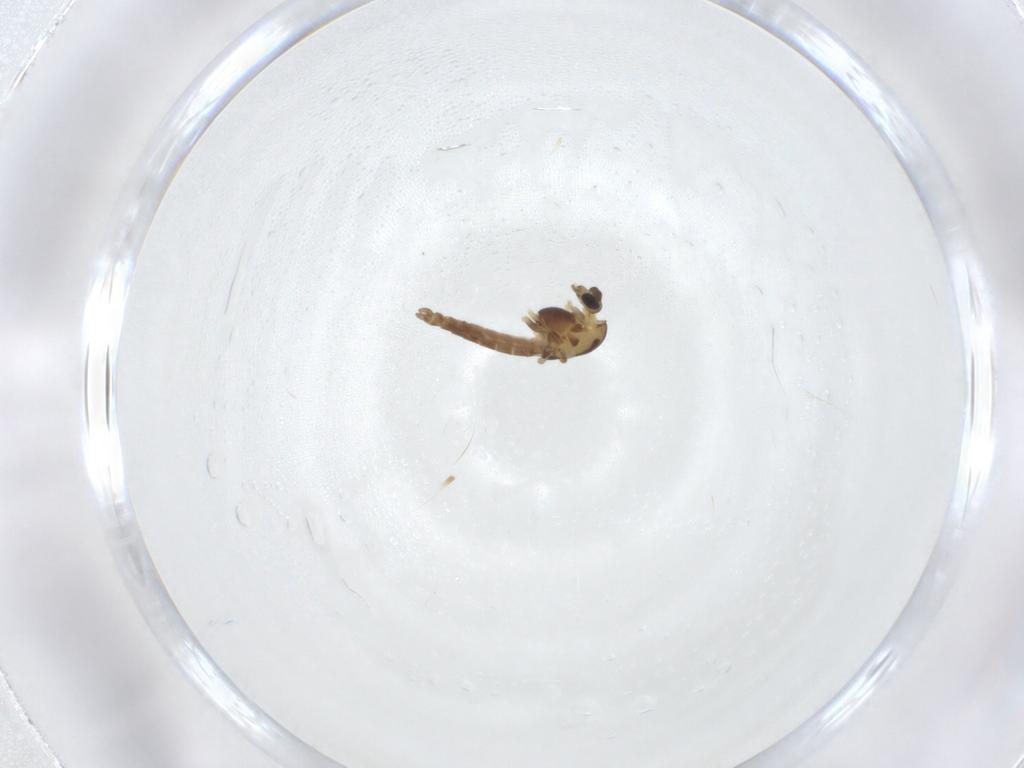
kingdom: Animalia
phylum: Arthropoda
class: Insecta
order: Diptera
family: Chironomidae
